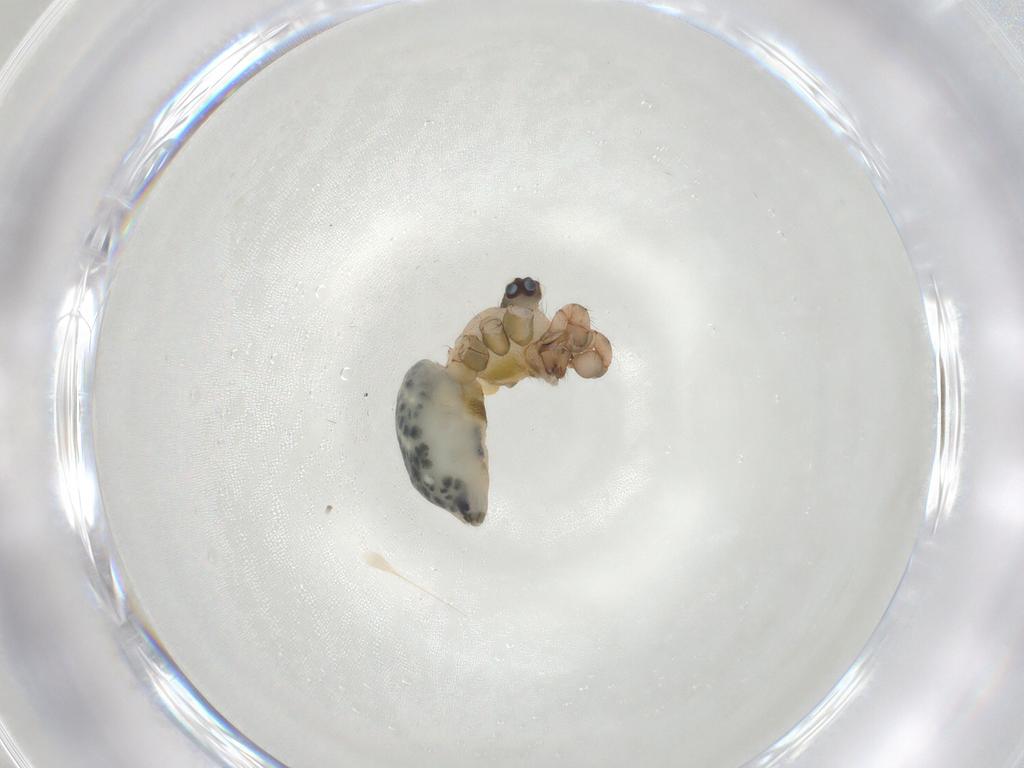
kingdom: Animalia
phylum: Arthropoda
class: Arachnida
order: Araneae
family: Pholcidae
